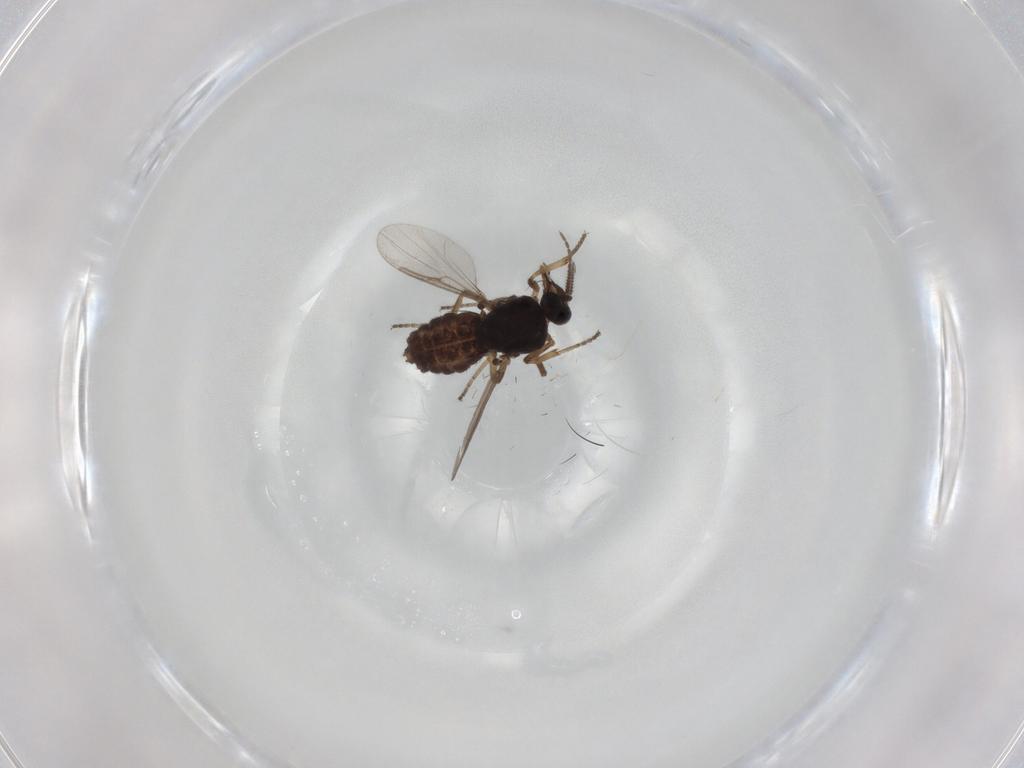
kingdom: Animalia
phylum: Arthropoda
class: Insecta
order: Diptera
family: Ceratopogonidae
